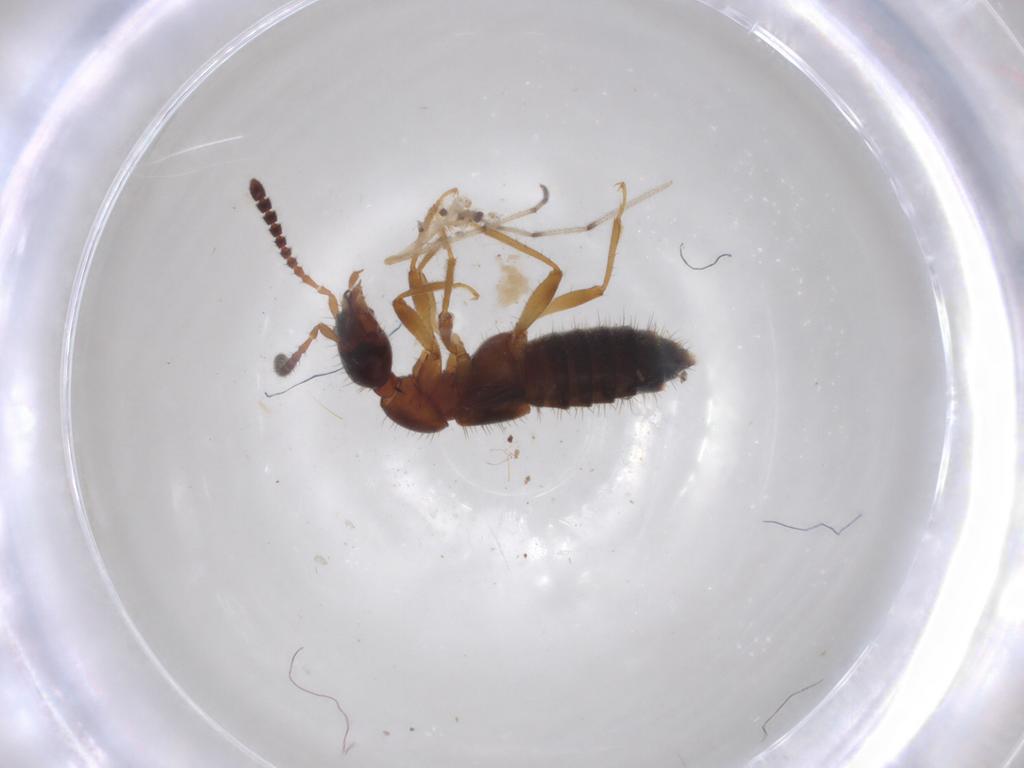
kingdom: Animalia
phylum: Arthropoda
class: Insecta
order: Coleoptera
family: Staphylinidae
